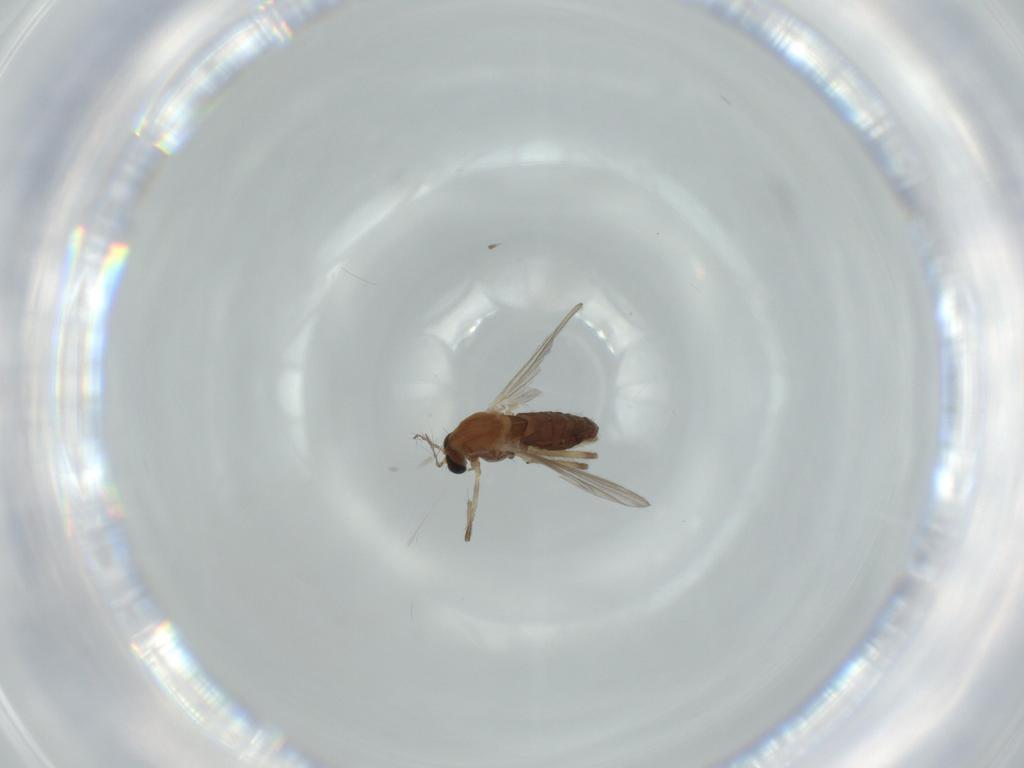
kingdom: Animalia
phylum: Arthropoda
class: Insecta
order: Diptera
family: Chironomidae
